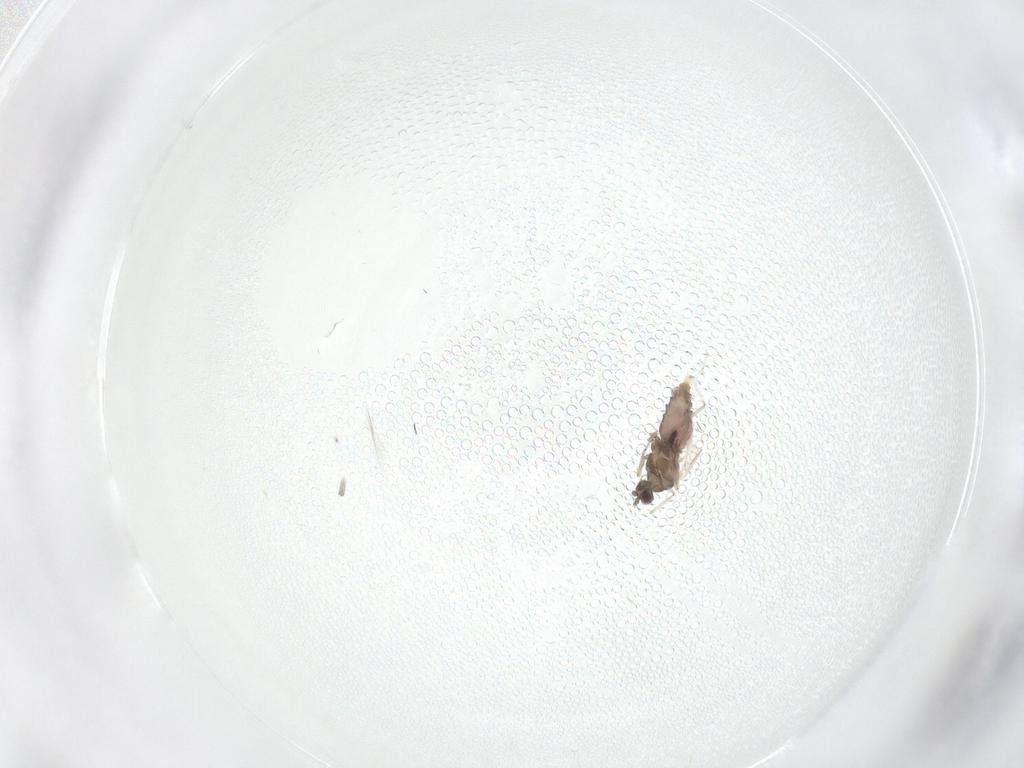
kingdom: Animalia
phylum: Arthropoda
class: Insecta
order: Diptera
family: Cecidomyiidae
